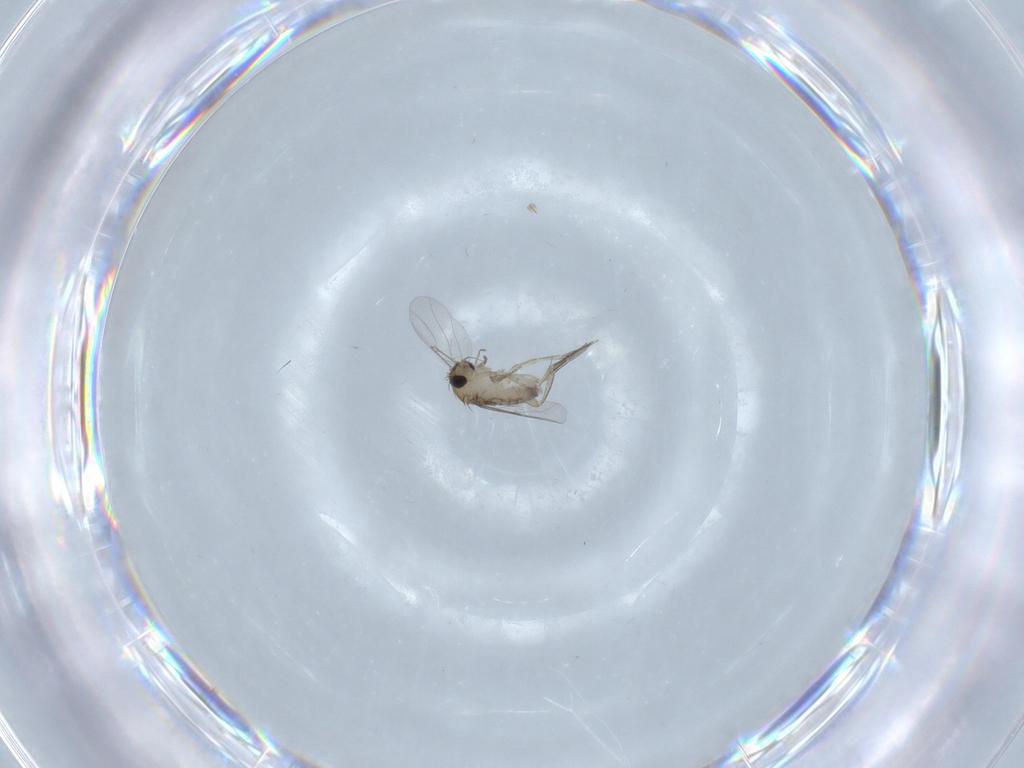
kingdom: Animalia
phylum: Arthropoda
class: Insecta
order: Diptera
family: Phoridae
